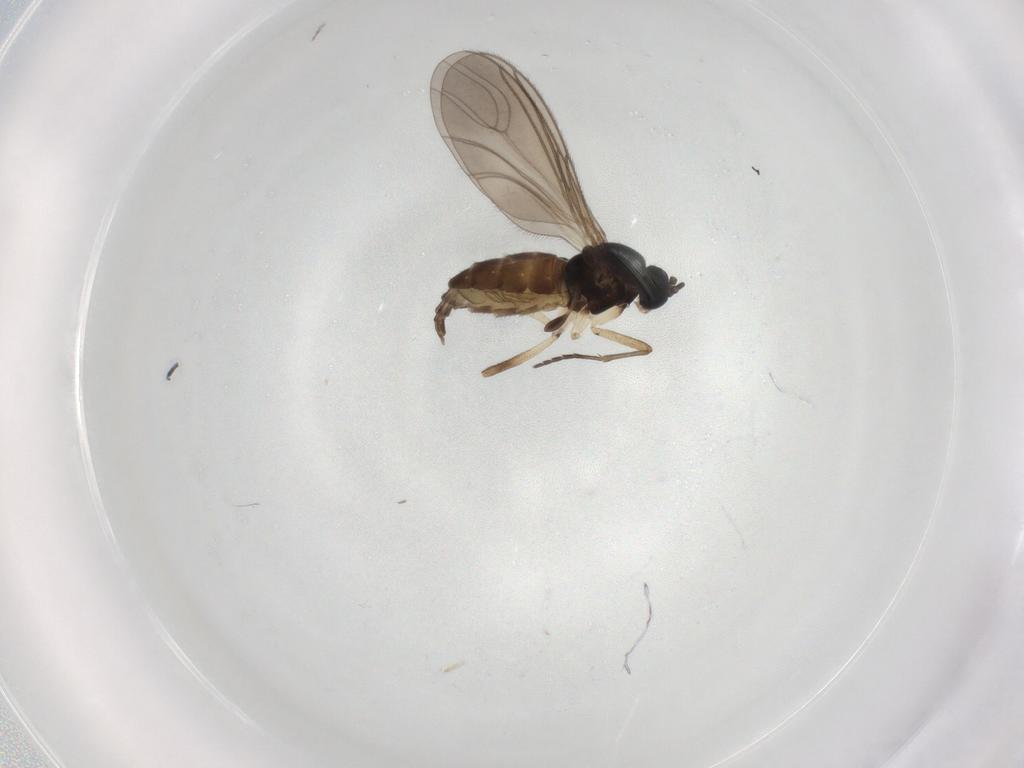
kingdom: Animalia
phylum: Arthropoda
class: Insecta
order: Diptera
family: Sciaridae
